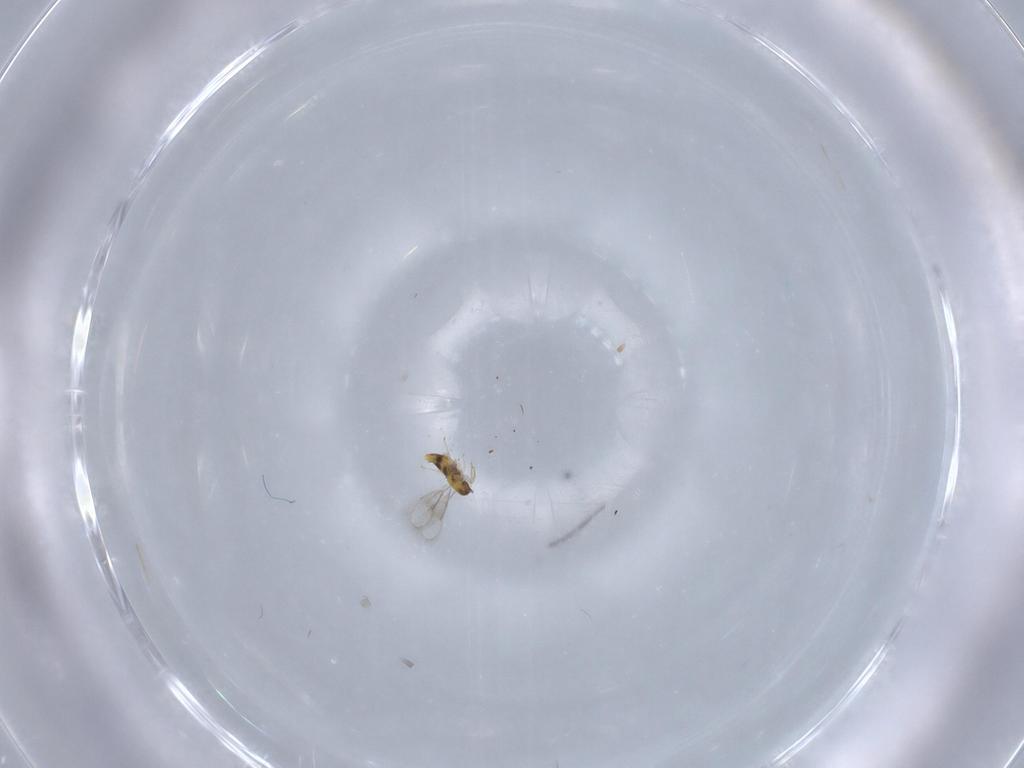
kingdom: Animalia
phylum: Arthropoda
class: Insecta
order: Hymenoptera
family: Aphelinidae
